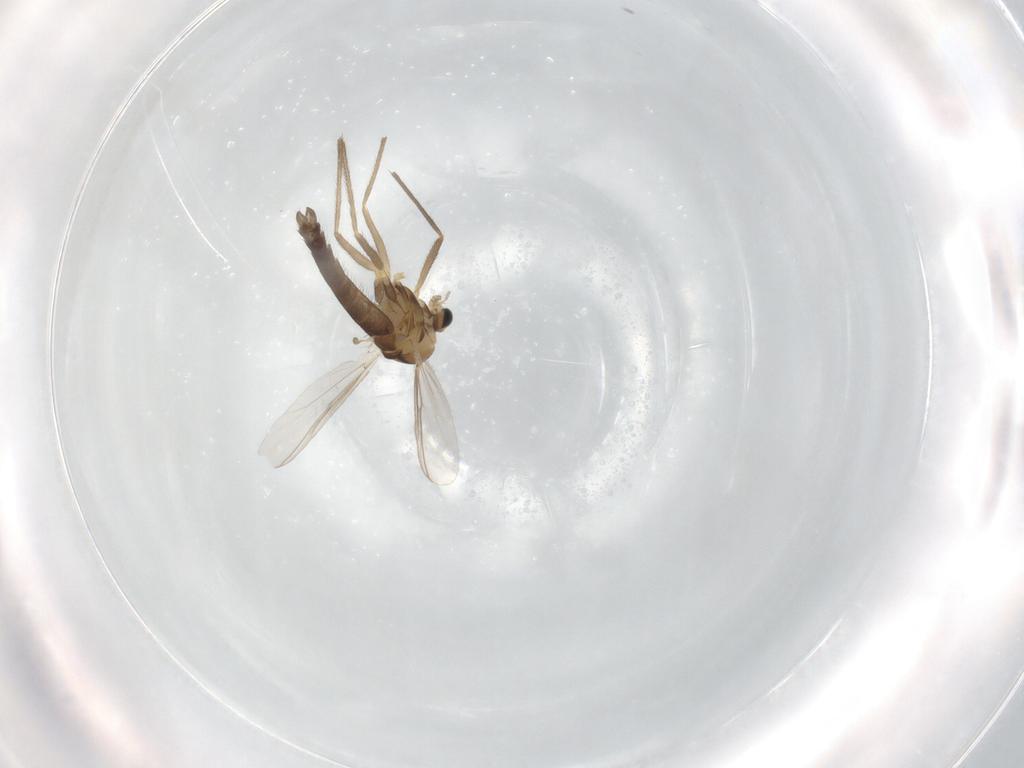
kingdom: Animalia
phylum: Arthropoda
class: Insecta
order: Diptera
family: Chironomidae
